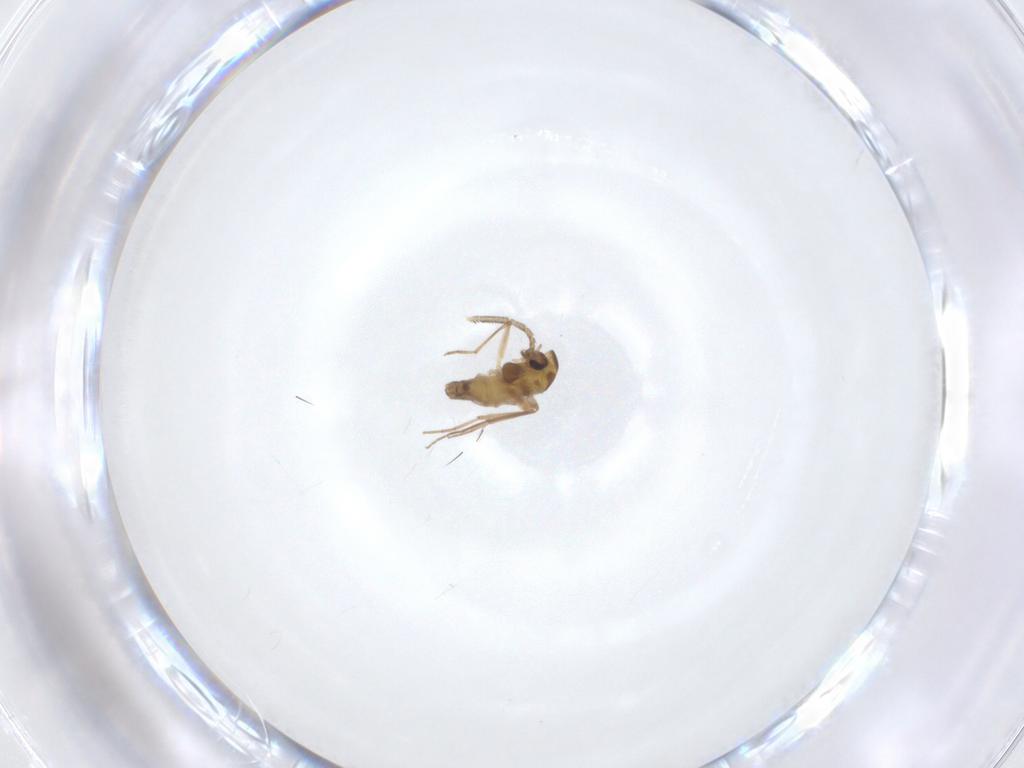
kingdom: Animalia
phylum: Arthropoda
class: Insecta
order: Diptera
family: Heleomyzidae
